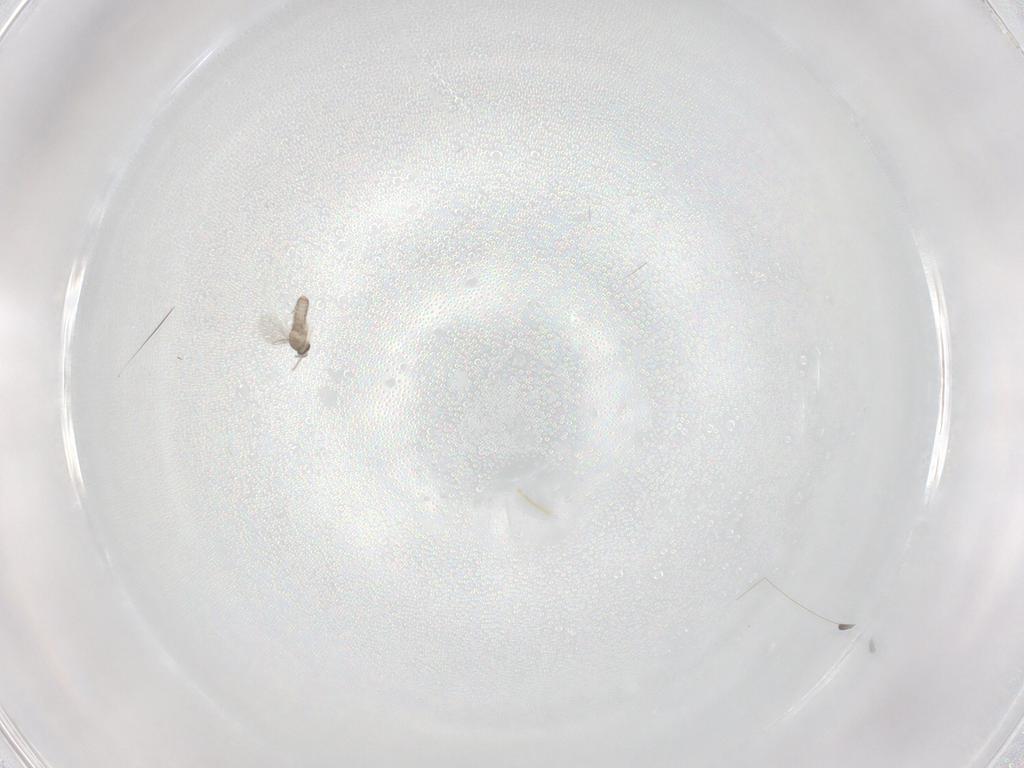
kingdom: Animalia
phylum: Arthropoda
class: Insecta
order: Diptera
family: Cecidomyiidae
